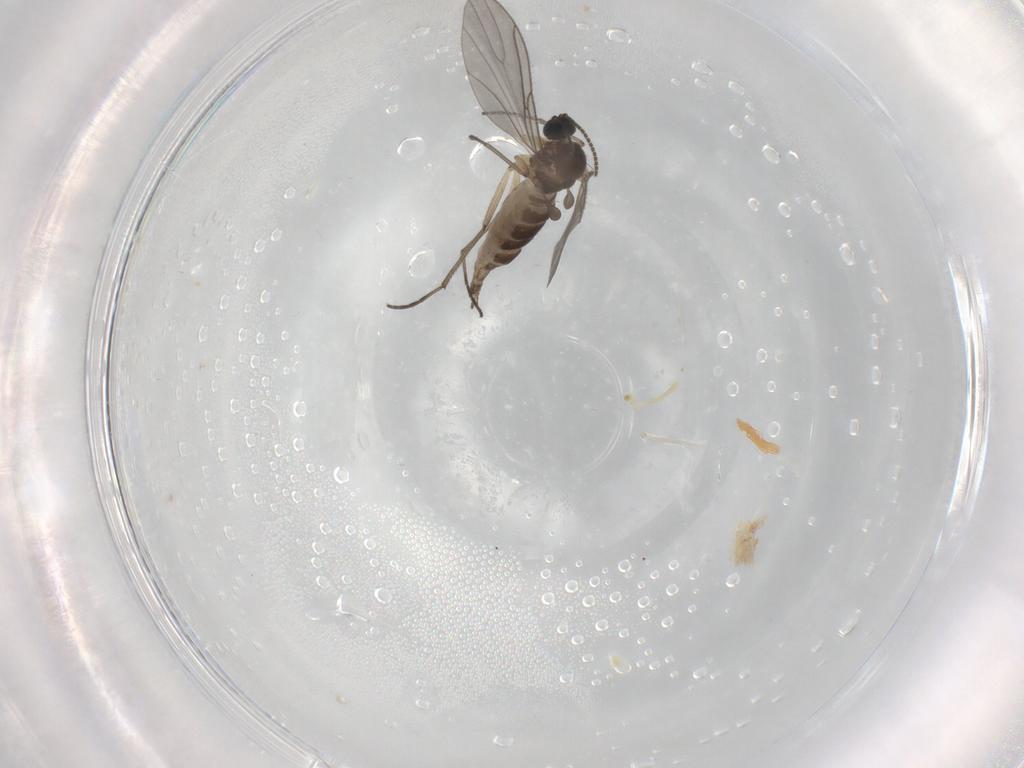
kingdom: Animalia
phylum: Arthropoda
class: Insecta
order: Diptera
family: Sciaridae
